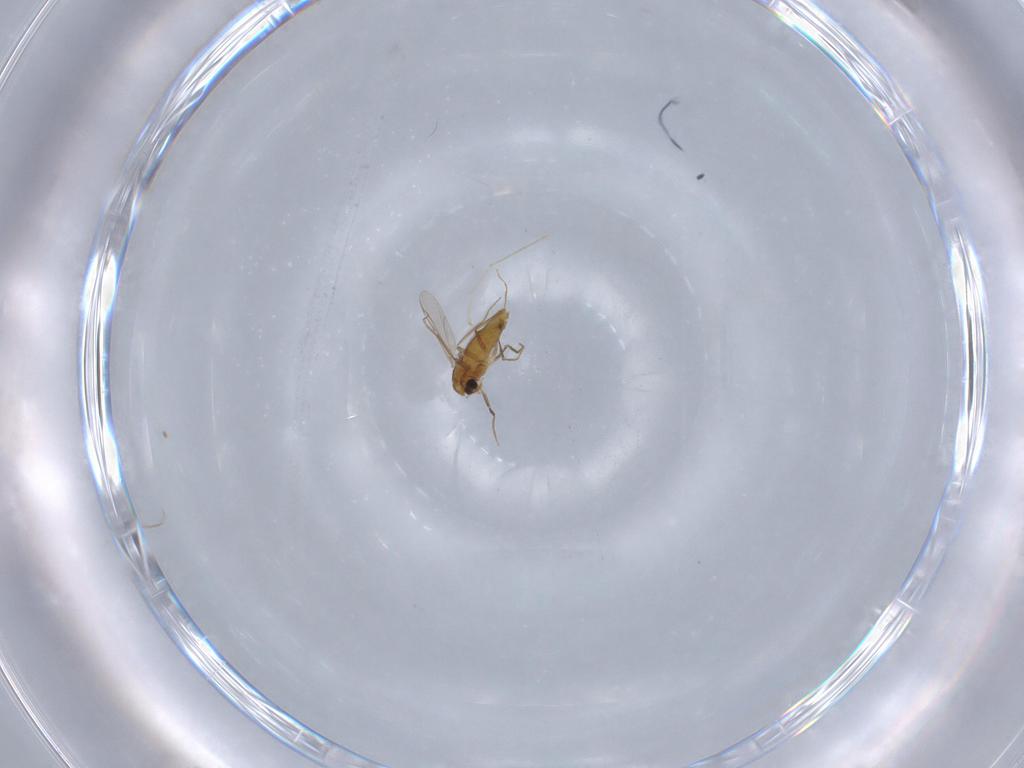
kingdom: Animalia
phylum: Arthropoda
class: Insecta
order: Diptera
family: Chironomidae
